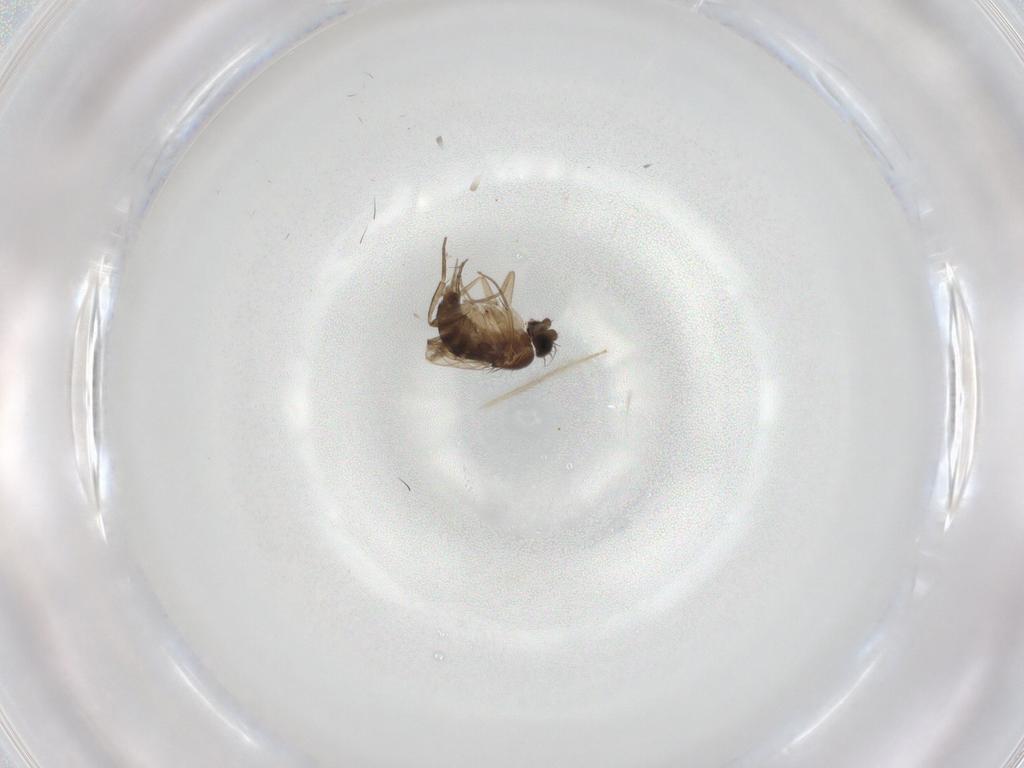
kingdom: Animalia
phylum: Arthropoda
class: Insecta
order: Diptera
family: Phoridae
